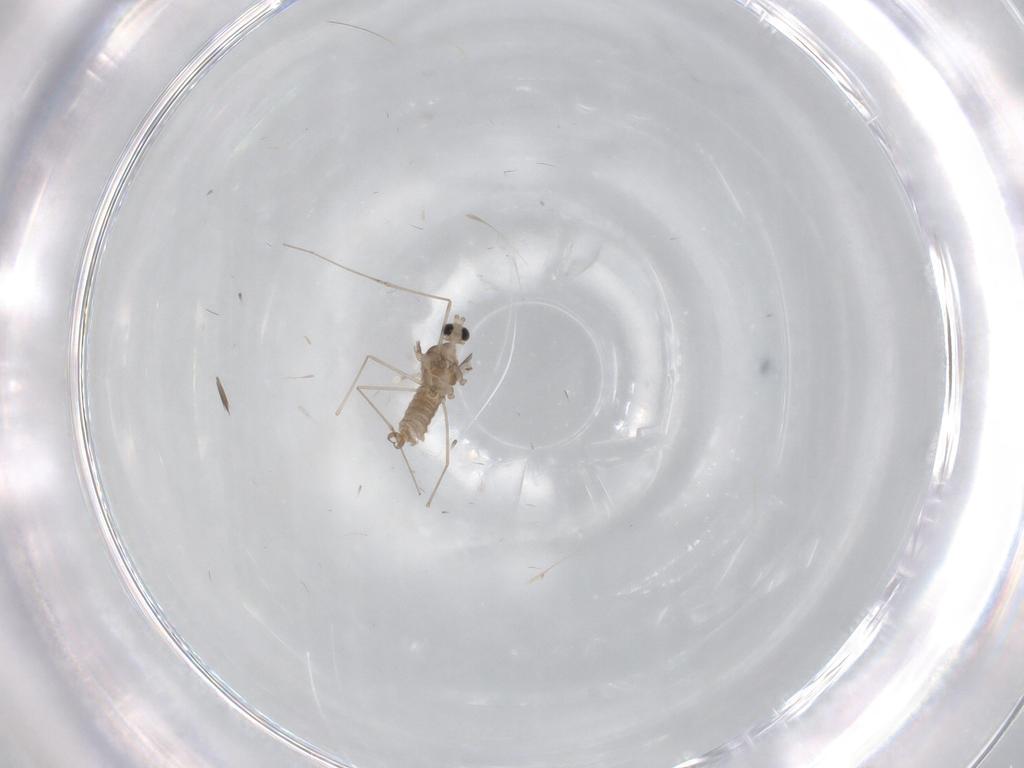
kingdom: Animalia
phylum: Arthropoda
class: Insecta
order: Diptera
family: Cecidomyiidae
